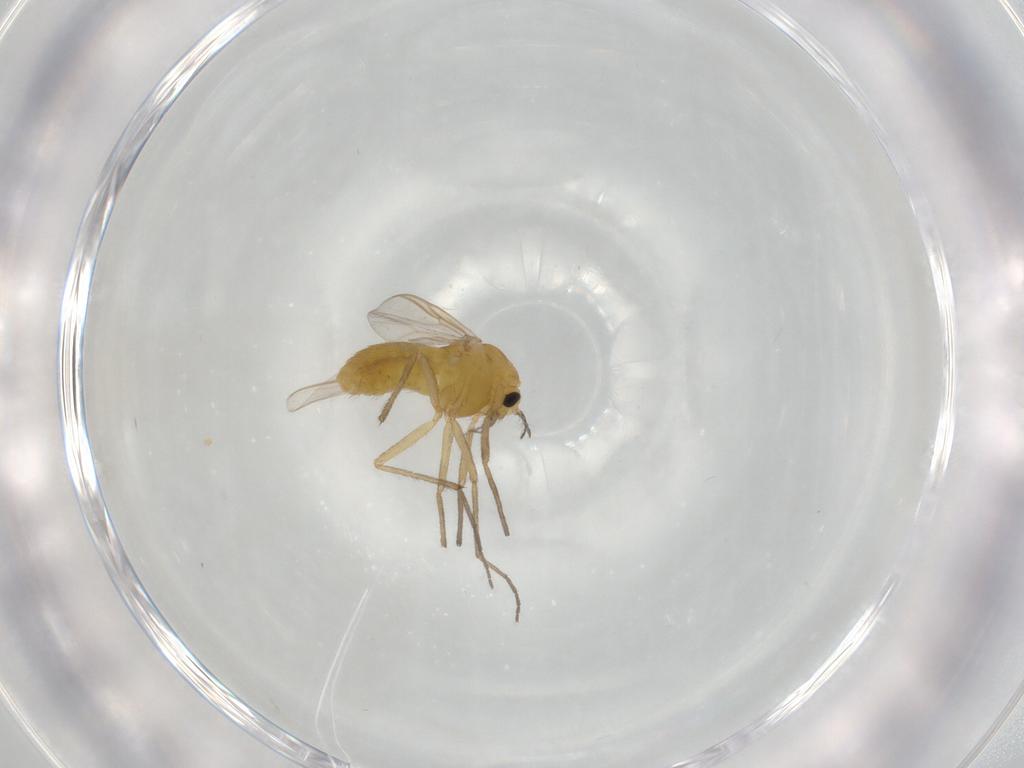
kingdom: Animalia
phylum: Arthropoda
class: Insecta
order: Diptera
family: Chironomidae
